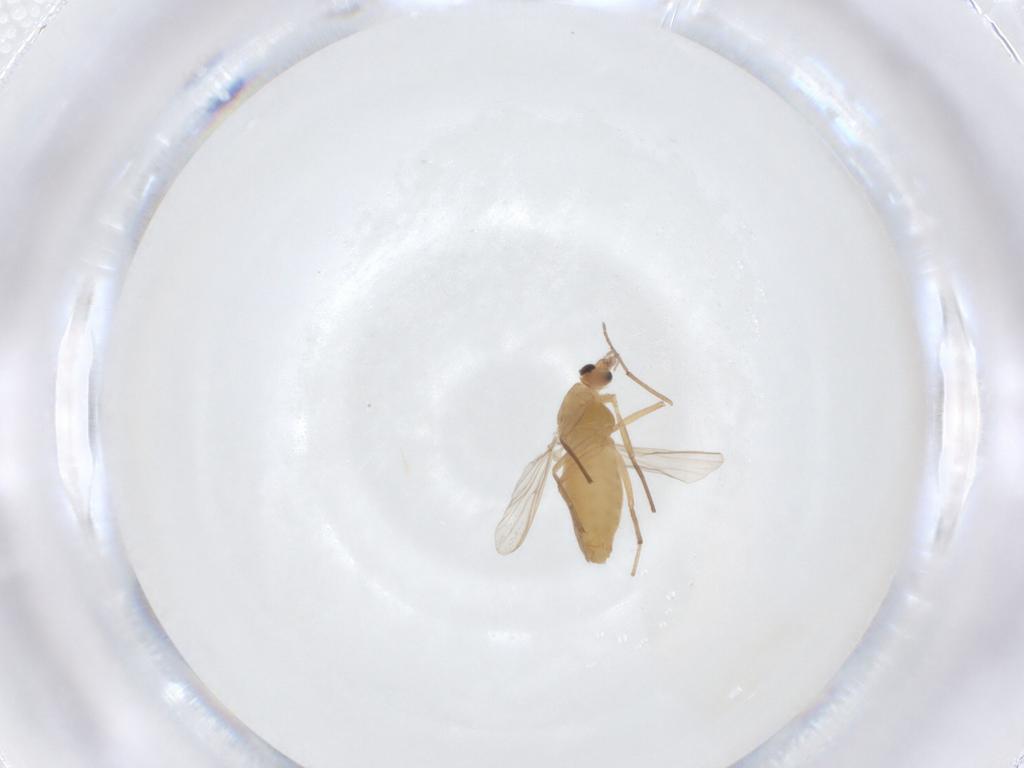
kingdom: Animalia
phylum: Arthropoda
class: Insecta
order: Diptera
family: Chironomidae
